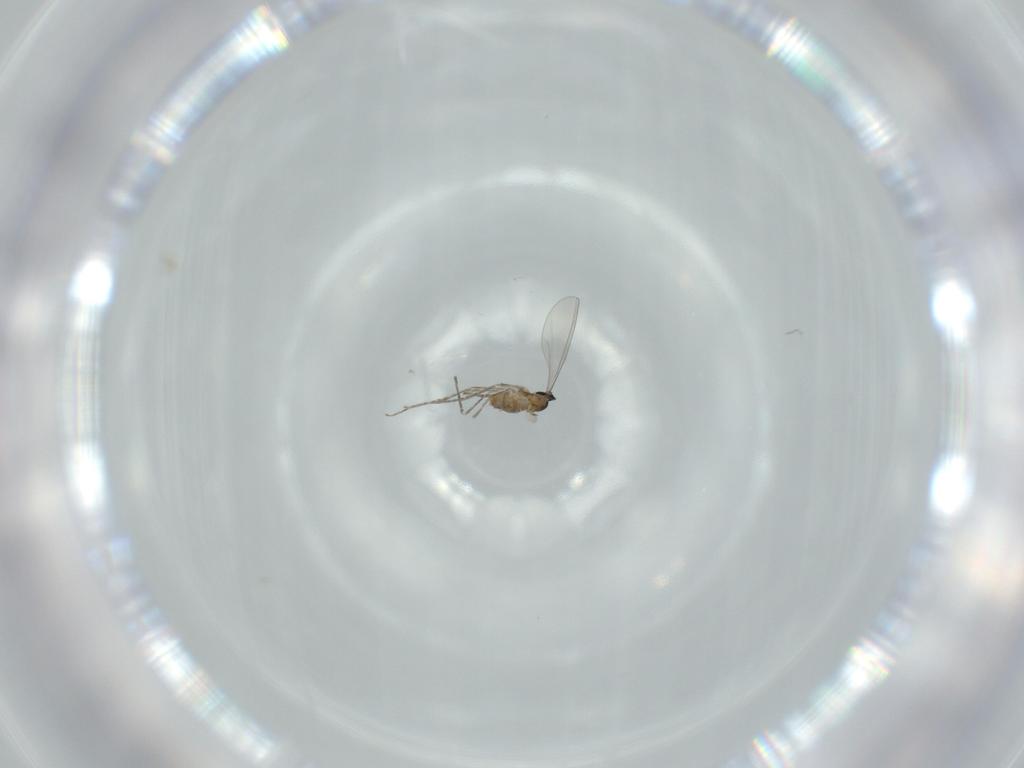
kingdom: Animalia
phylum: Arthropoda
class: Insecta
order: Diptera
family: Cecidomyiidae
